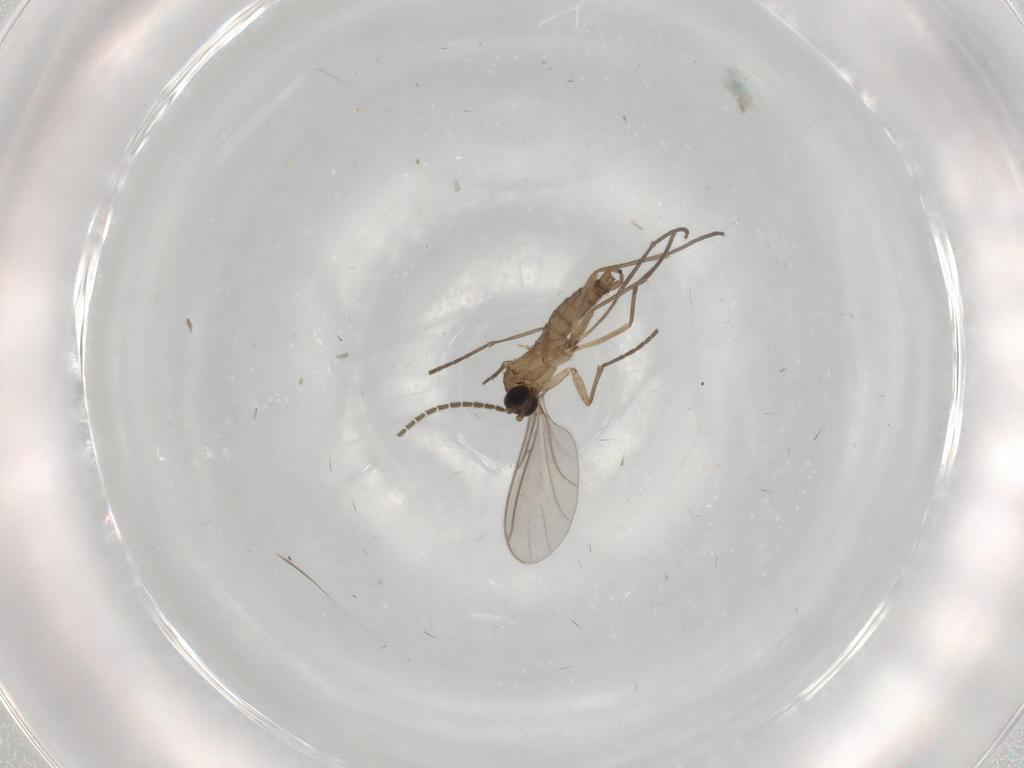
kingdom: Animalia
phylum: Arthropoda
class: Insecta
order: Diptera
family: Sciaridae
